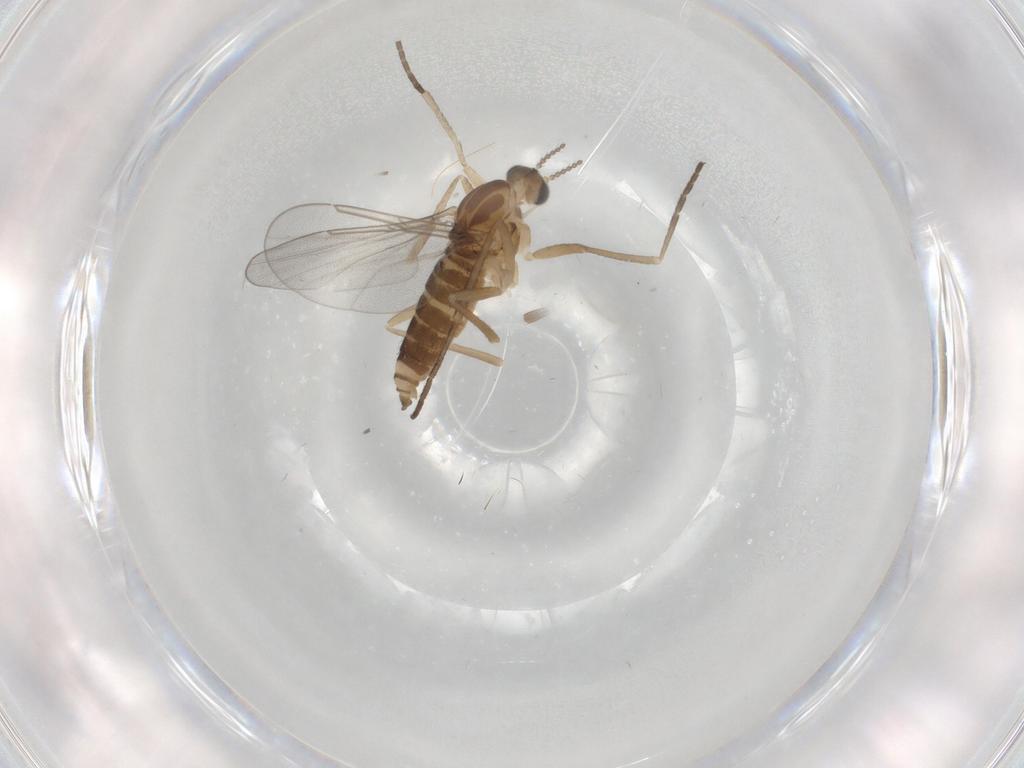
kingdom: Animalia
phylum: Arthropoda
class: Insecta
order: Diptera
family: Cecidomyiidae
